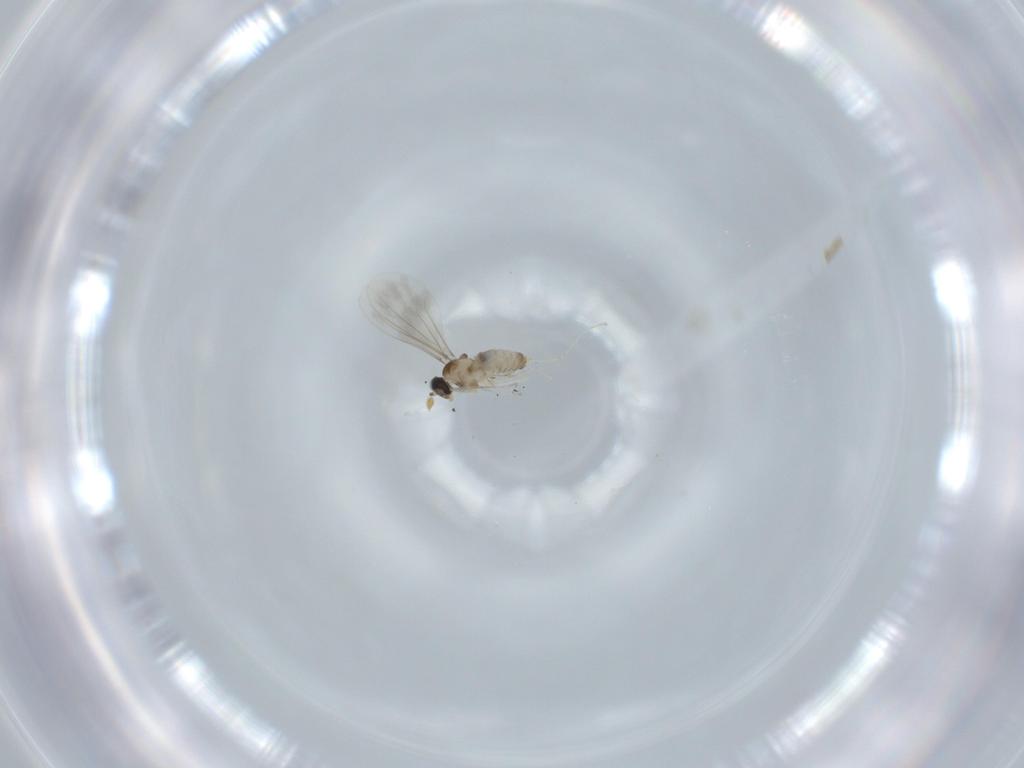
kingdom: Animalia
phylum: Arthropoda
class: Insecta
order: Diptera
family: Cecidomyiidae
